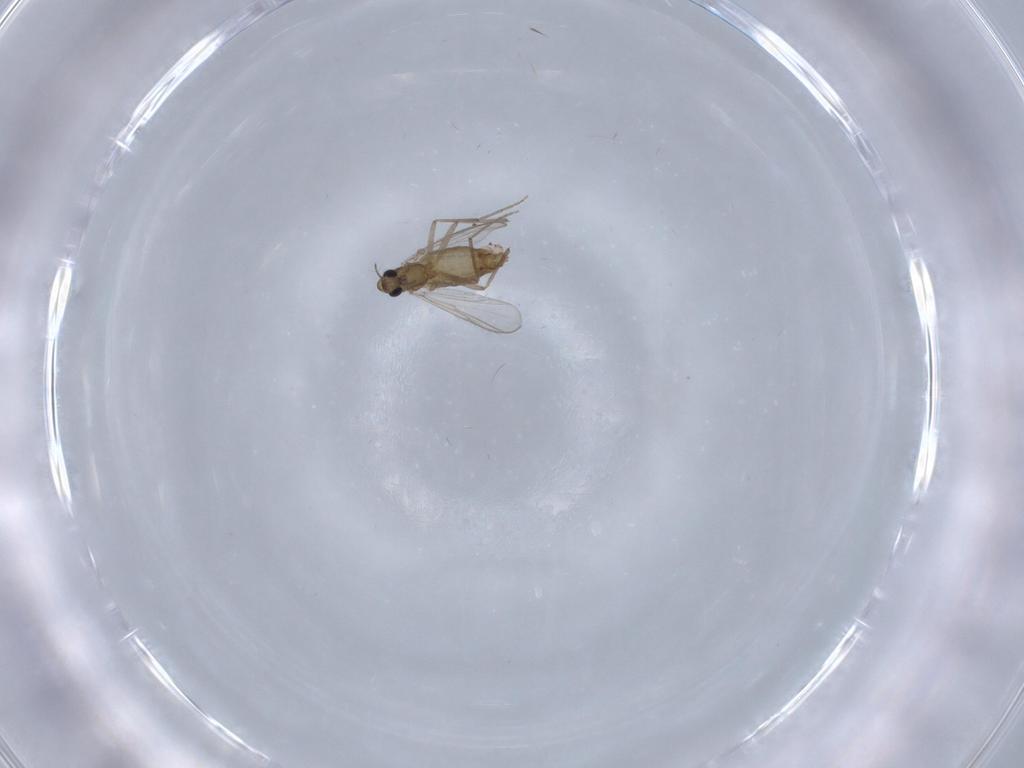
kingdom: Animalia
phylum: Arthropoda
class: Insecta
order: Diptera
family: Chironomidae
